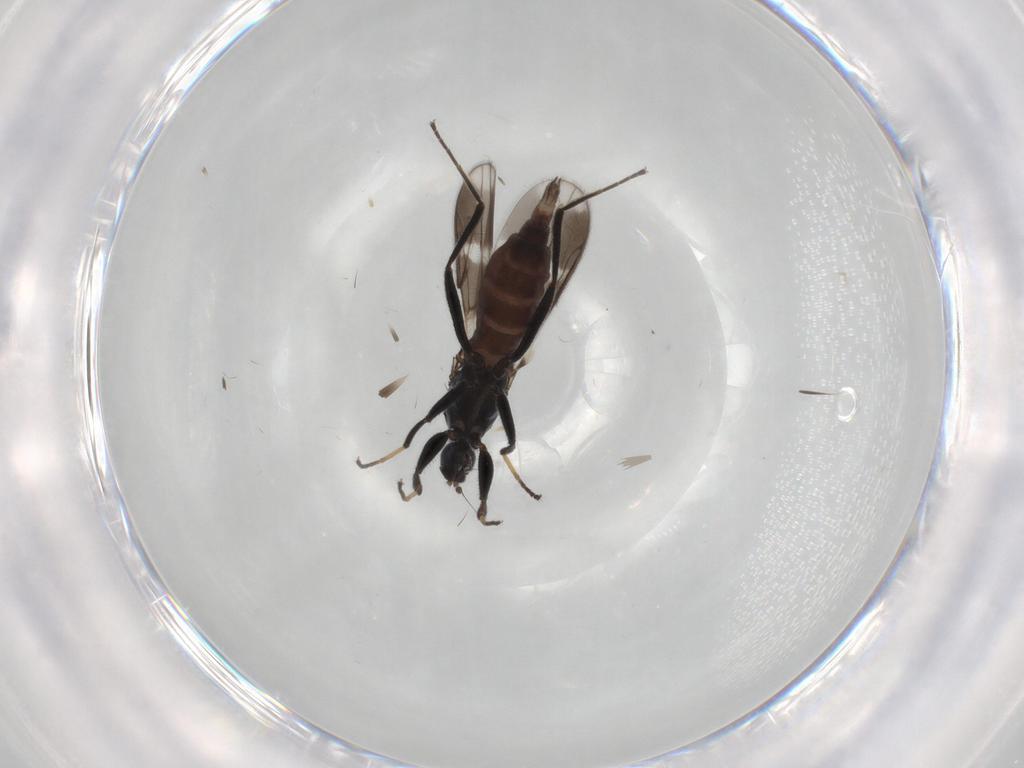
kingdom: Animalia
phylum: Arthropoda
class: Insecta
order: Diptera
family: Hybotidae
